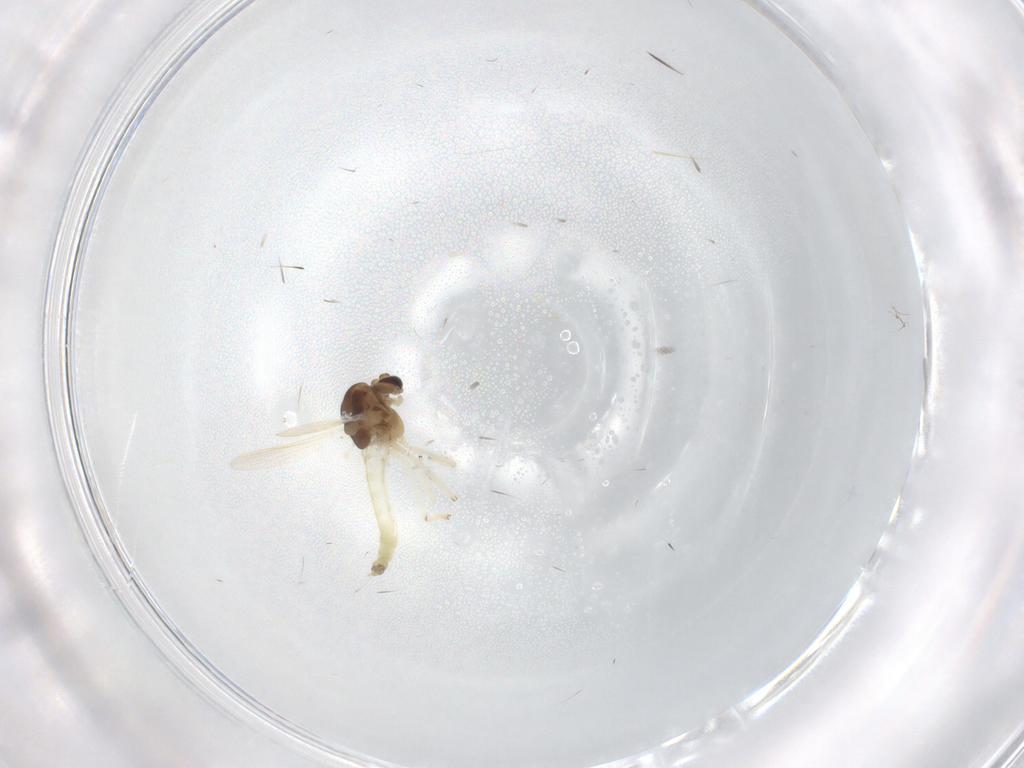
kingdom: Animalia
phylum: Arthropoda
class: Insecta
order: Diptera
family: Chironomidae
